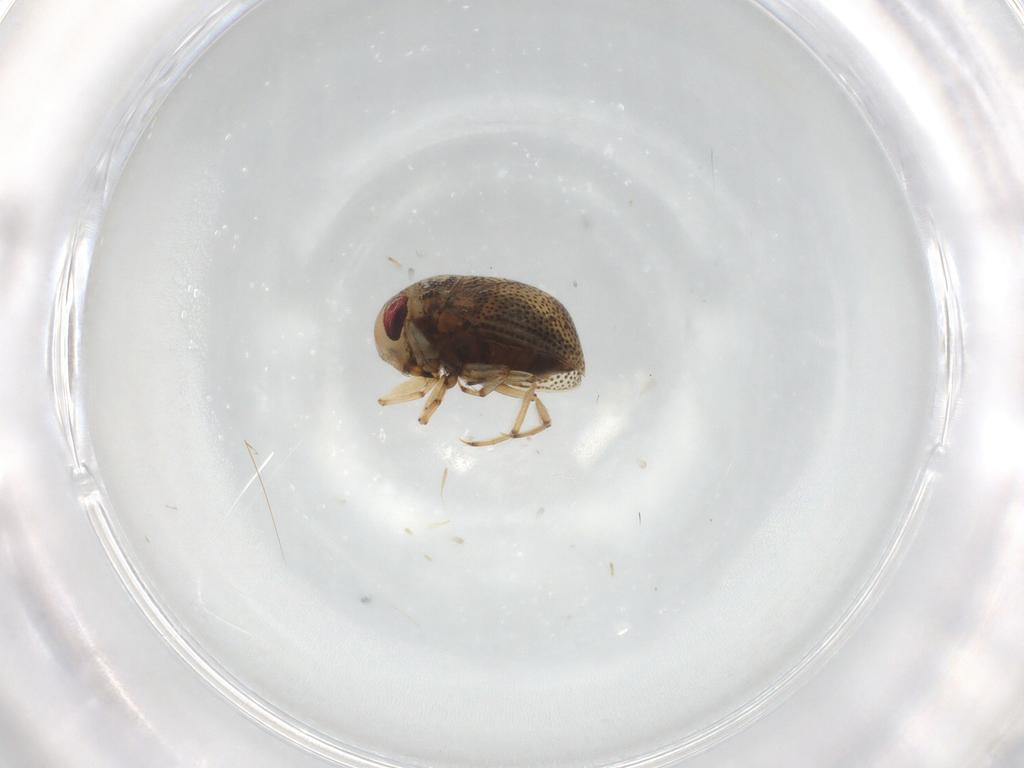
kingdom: Animalia
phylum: Arthropoda
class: Insecta
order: Hemiptera
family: Pleidae
